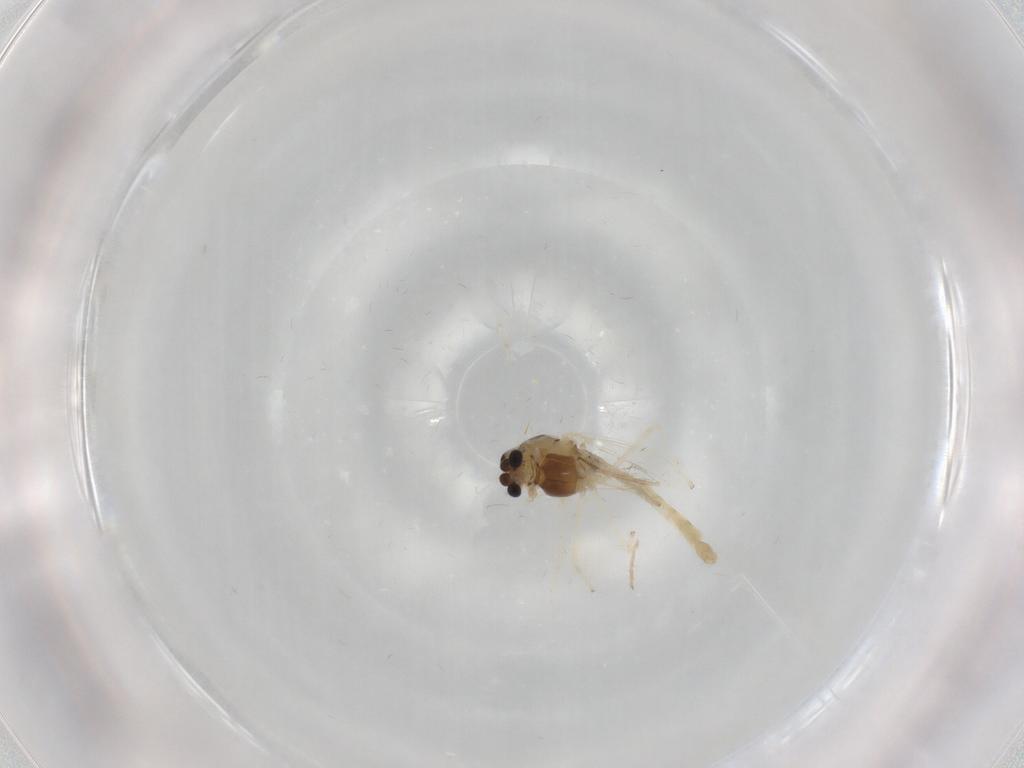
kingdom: Animalia
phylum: Arthropoda
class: Insecta
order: Diptera
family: Chironomidae
